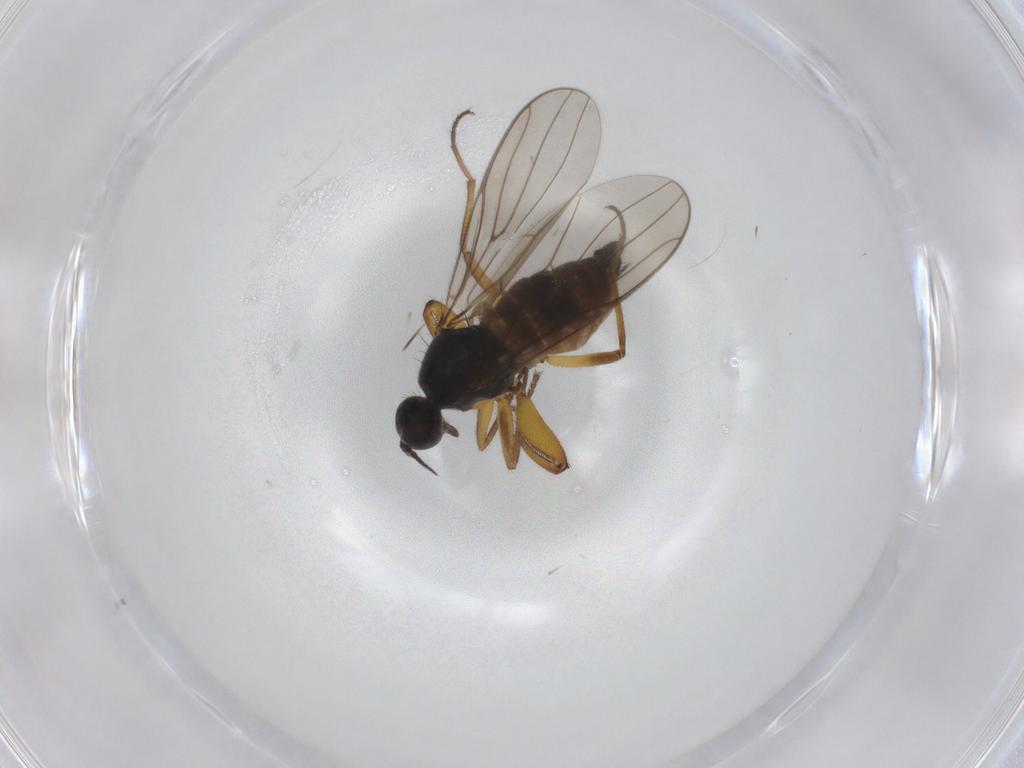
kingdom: Animalia
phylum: Arthropoda
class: Insecta
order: Diptera
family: Hybotidae
